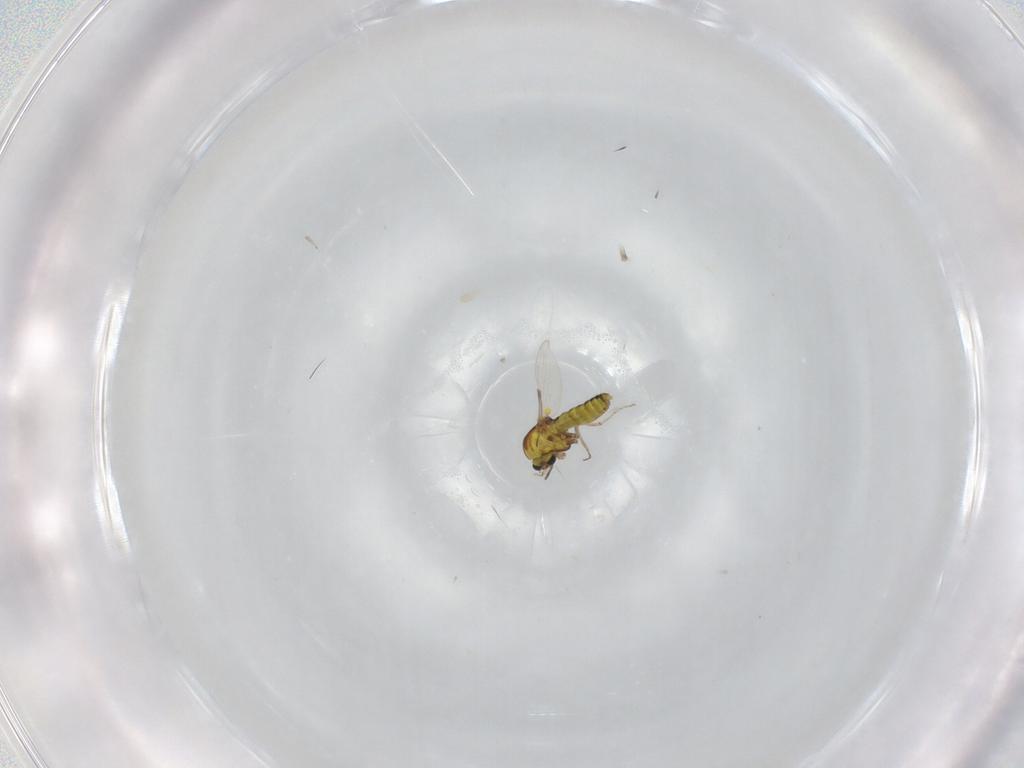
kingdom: Animalia
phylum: Arthropoda
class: Insecta
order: Diptera
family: Ceratopogonidae
